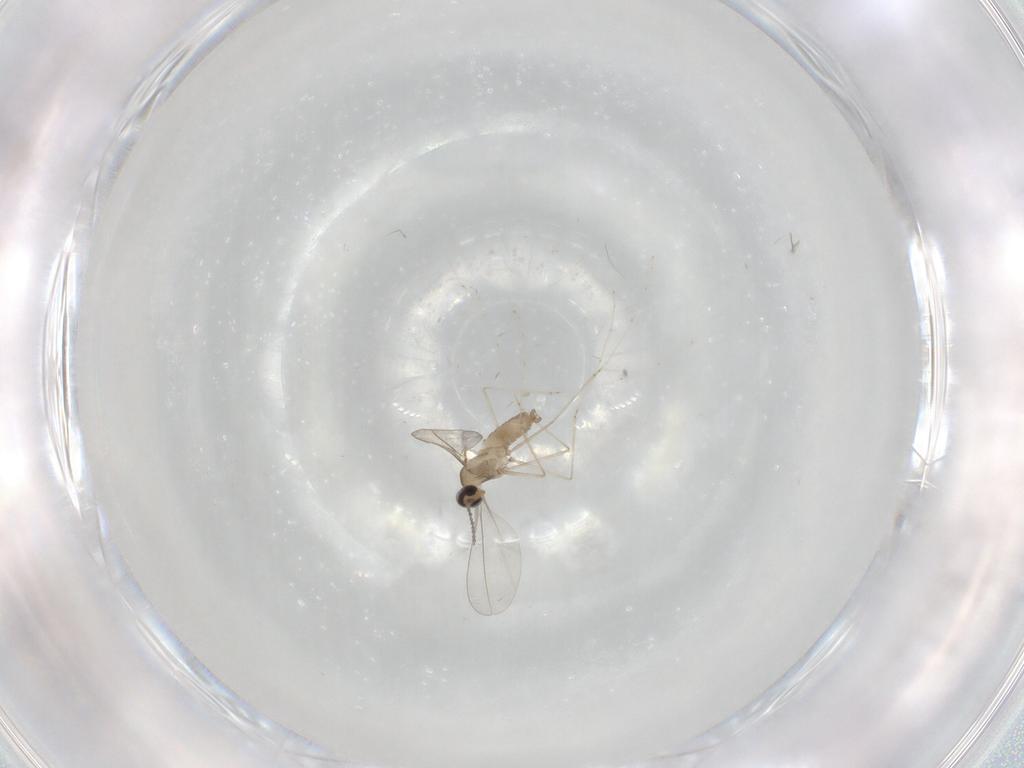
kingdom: Animalia
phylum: Arthropoda
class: Insecta
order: Diptera
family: Cecidomyiidae
